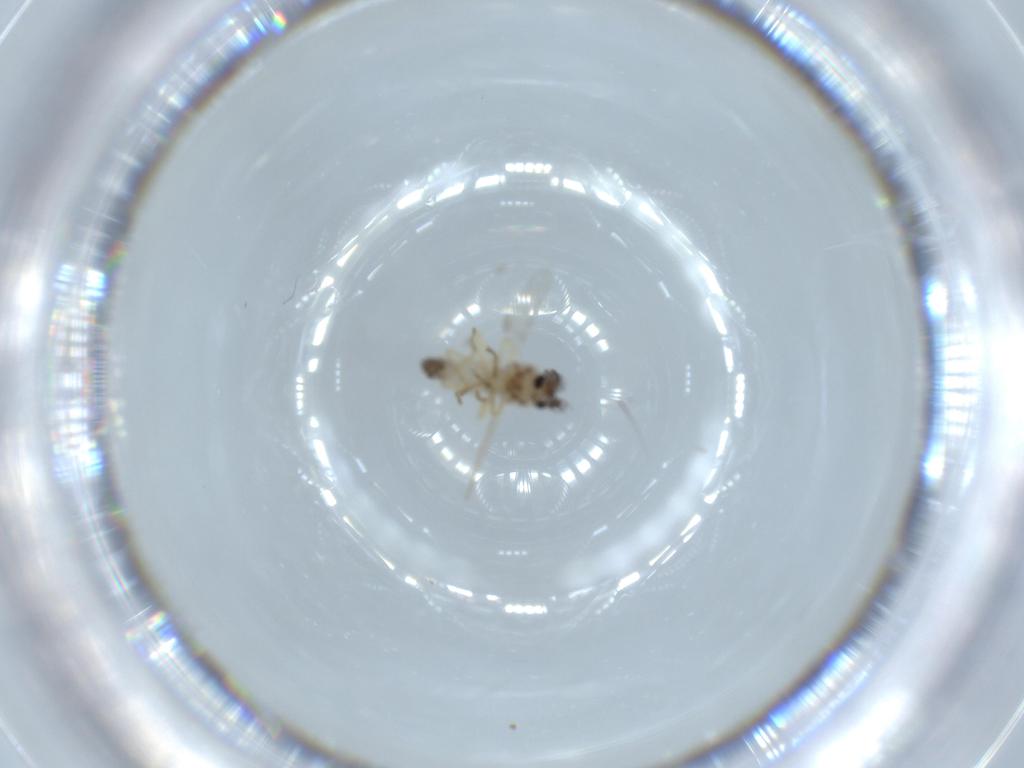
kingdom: Animalia
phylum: Arthropoda
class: Insecta
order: Diptera
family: Ceratopogonidae
